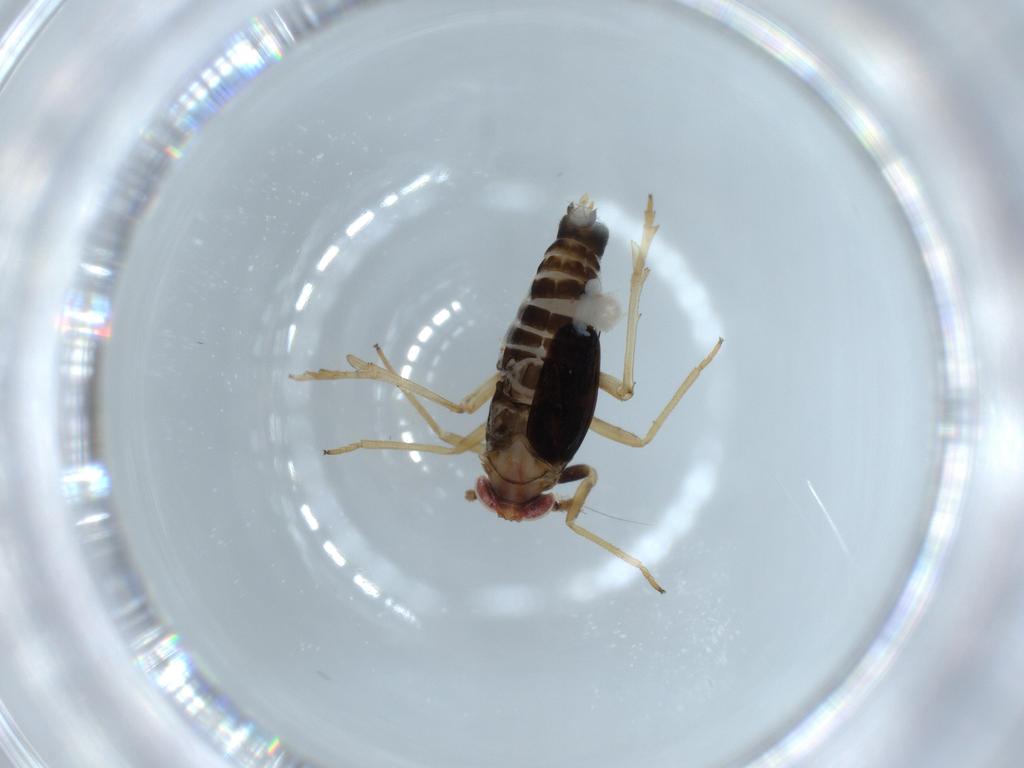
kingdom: Animalia
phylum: Arthropoda
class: Insecta
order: Hemiptera
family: Delphacidae
